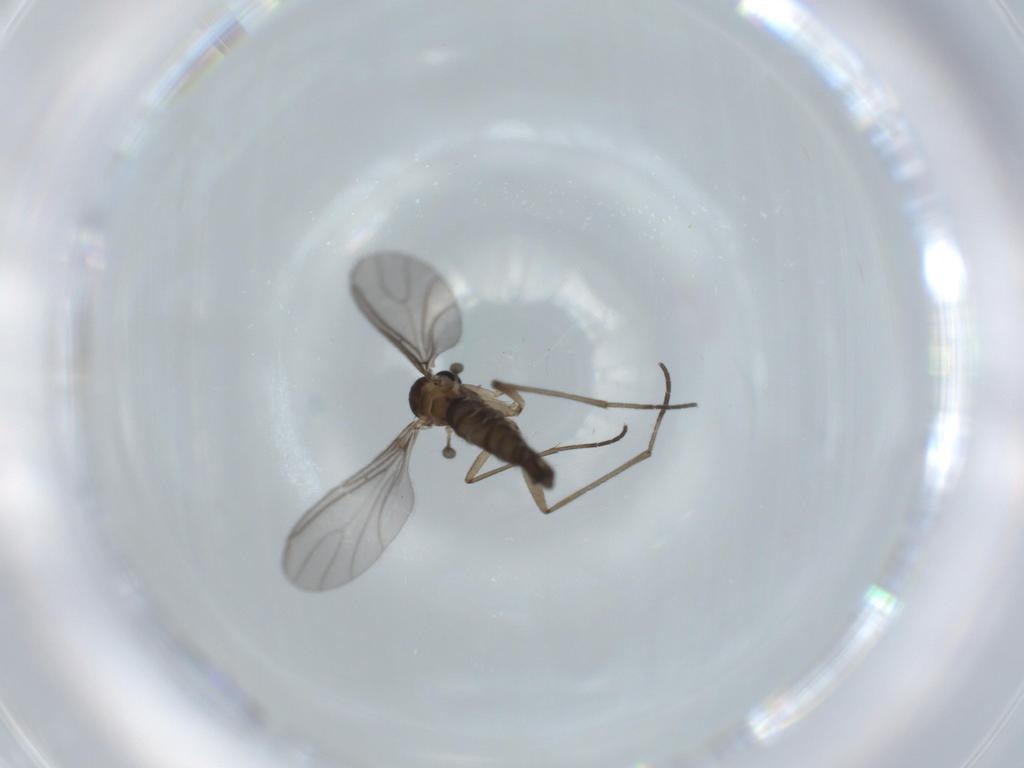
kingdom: Animalia
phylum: Arthropoda
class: Insecta
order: Diptera
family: Sciaridae
